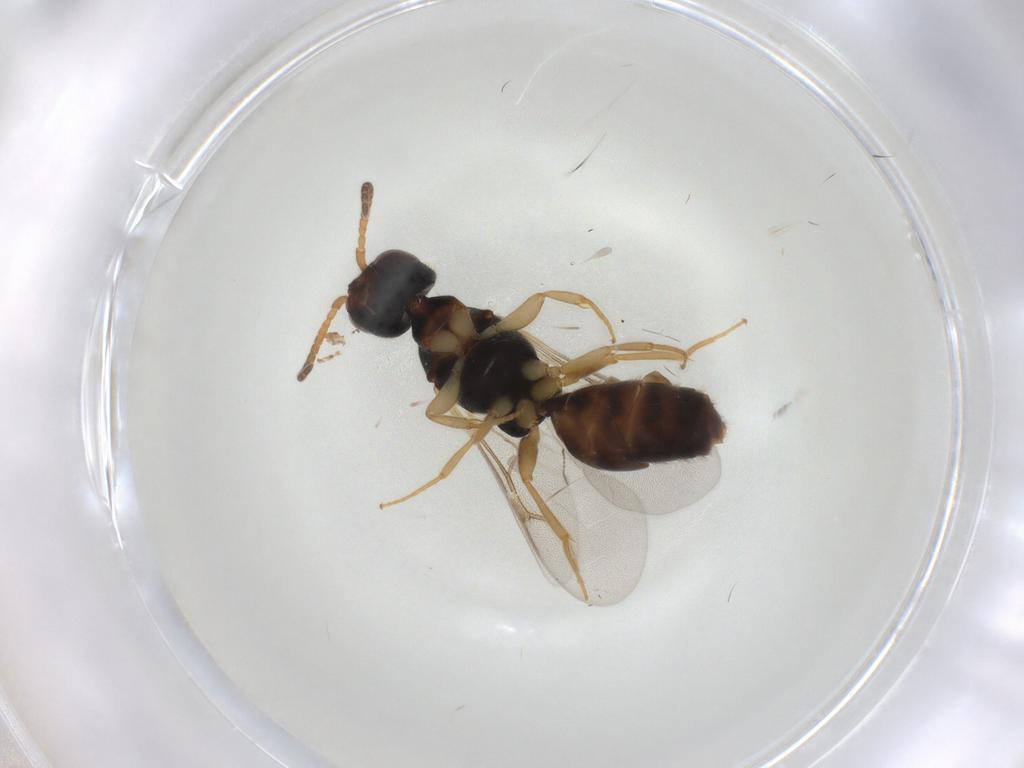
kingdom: Animalia
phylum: Arthropoda
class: Insecta
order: Hymenoptera
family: Bethylidae
